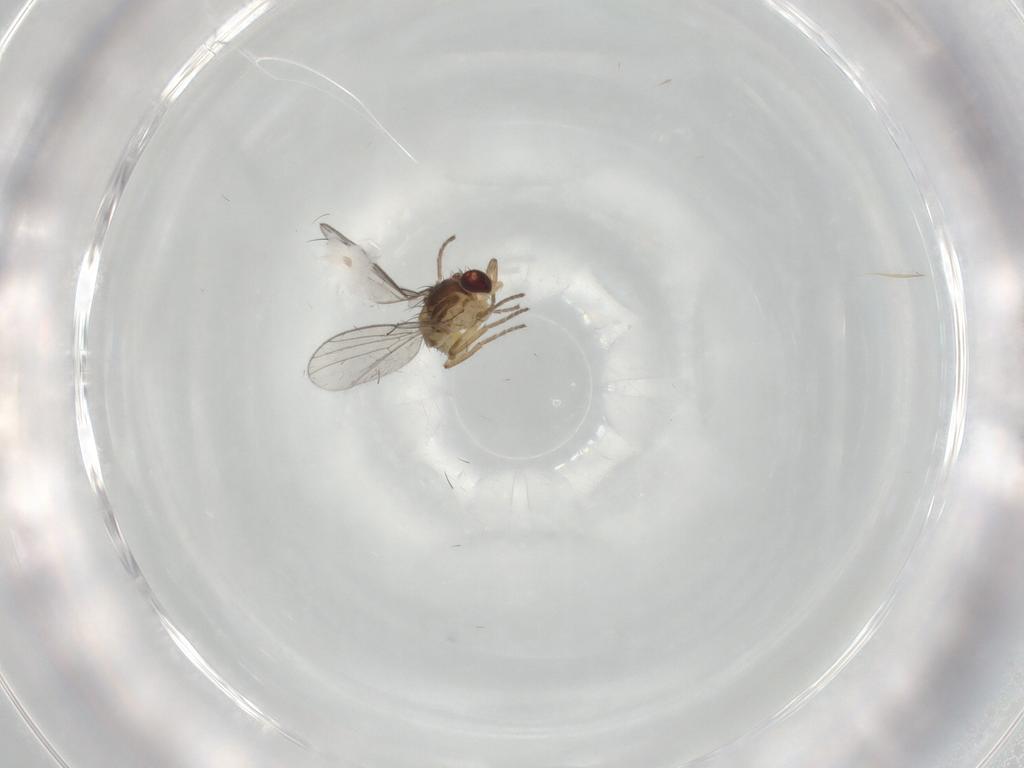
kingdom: Animalia
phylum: Arthropoda
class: Insecta
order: Diptera
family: Agromyzidae
